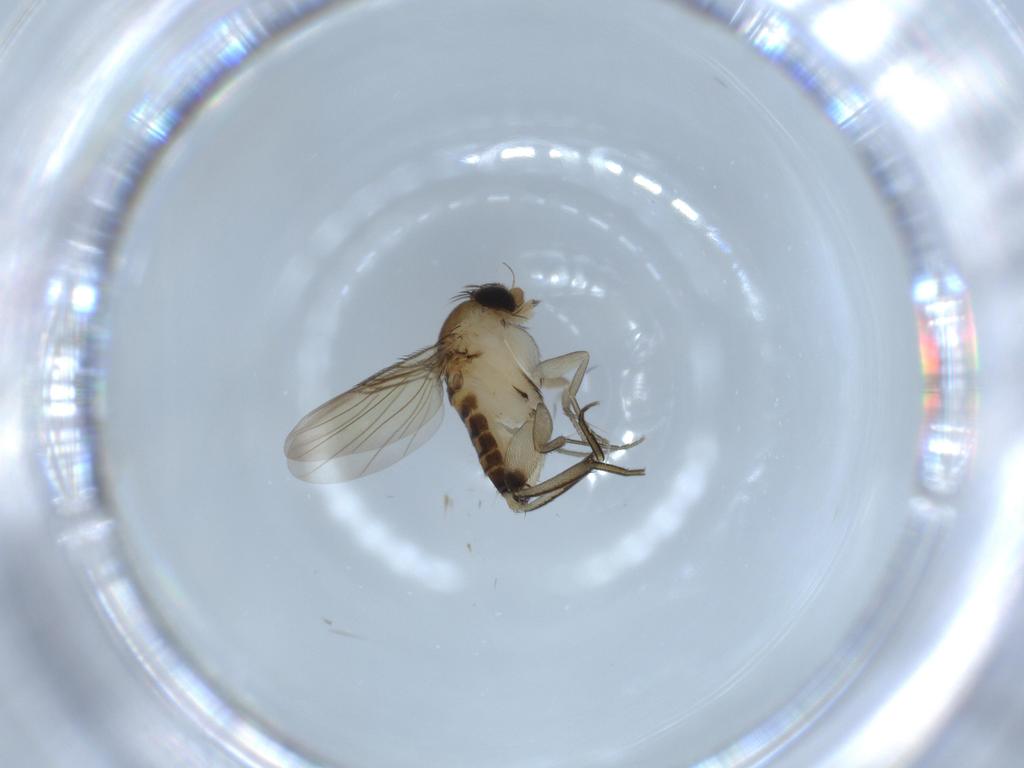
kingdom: Animalia
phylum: Arthropoda
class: Insecta
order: Diptera
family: Phoridae
